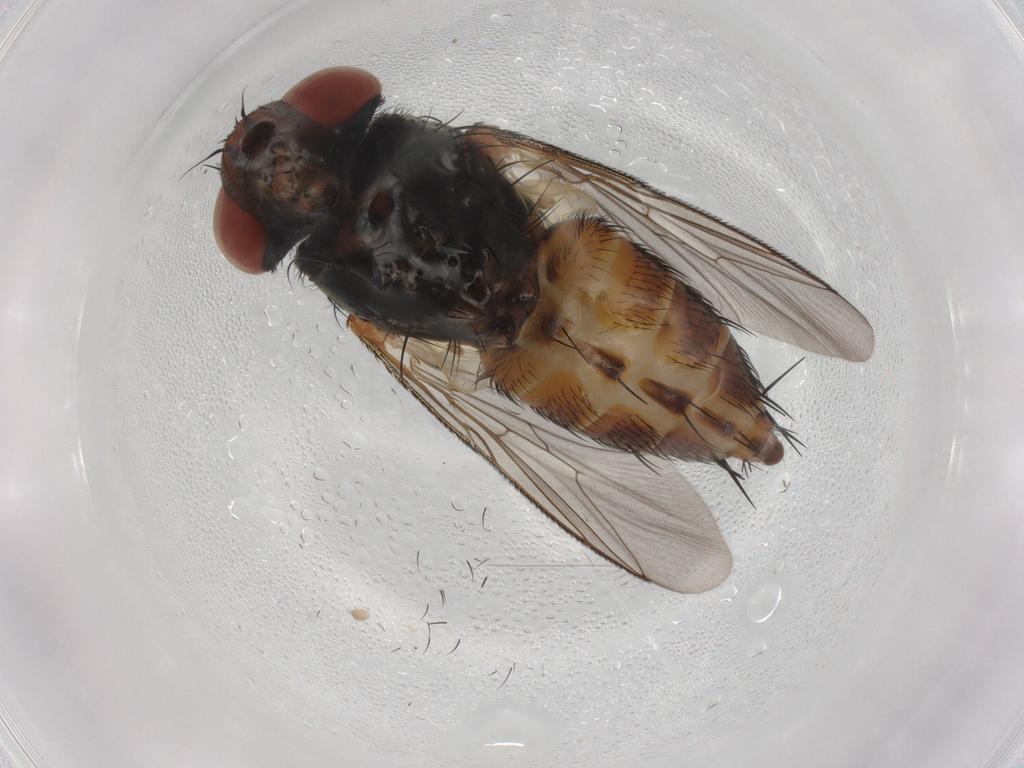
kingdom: Animalia
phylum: Arthropoda
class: Insecta
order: Diptera
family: Sarcophagidae
